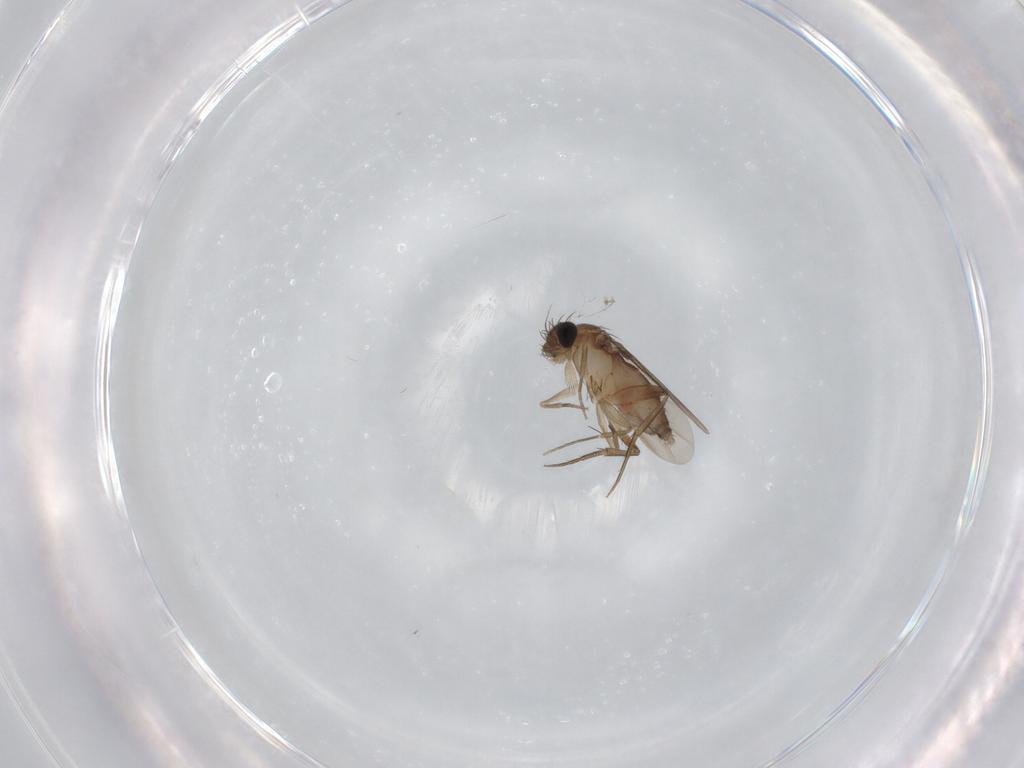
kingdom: Animalia
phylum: Arthropoda
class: Insecta
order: Diptera
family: Phoridae
